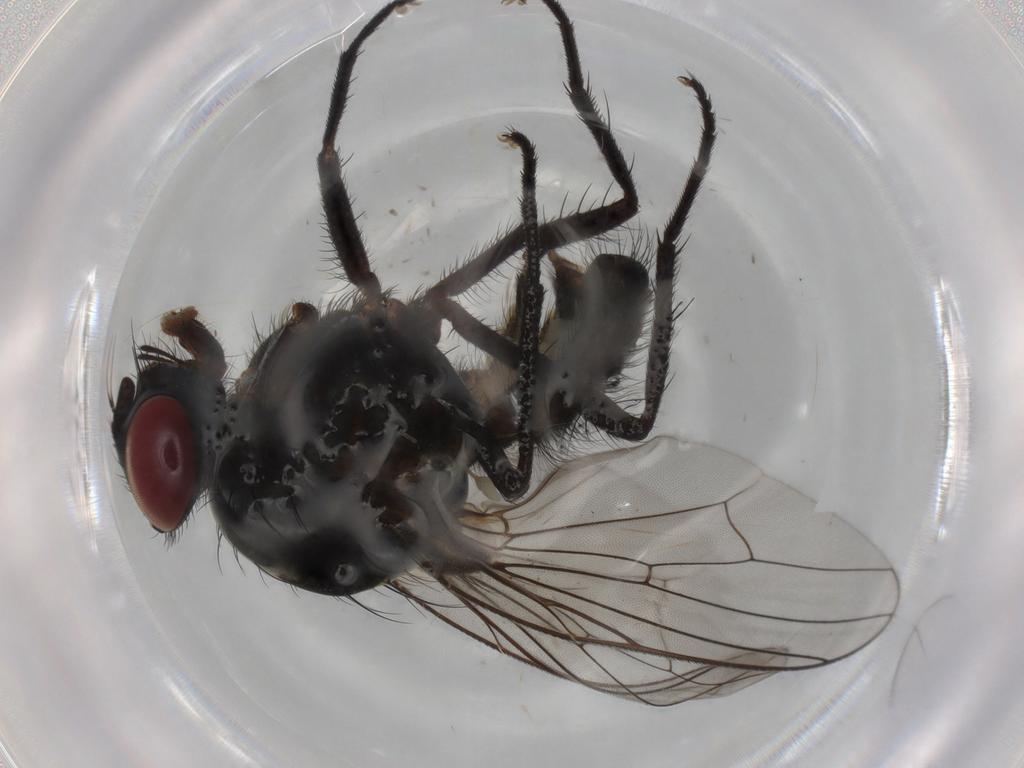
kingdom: Animalia
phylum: Arthropoda
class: Insecta
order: Diptera
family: Anthomyiidae
